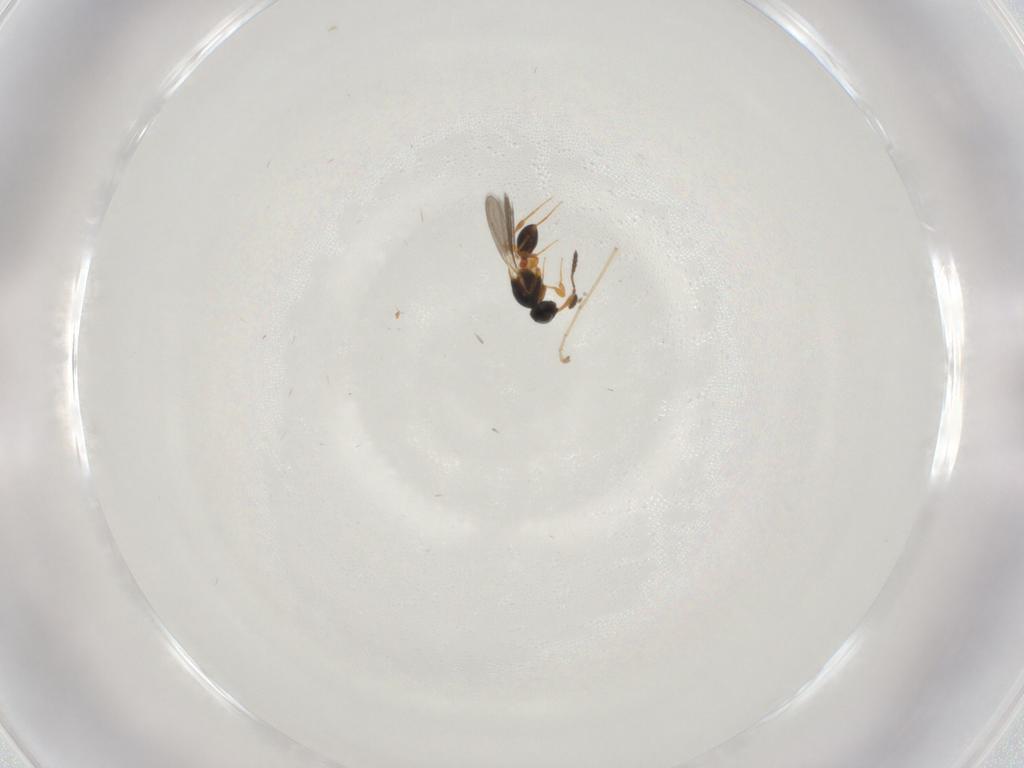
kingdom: Animalia
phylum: Arthropoda
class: Insecta
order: Hymenoptera
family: Platygastridae
